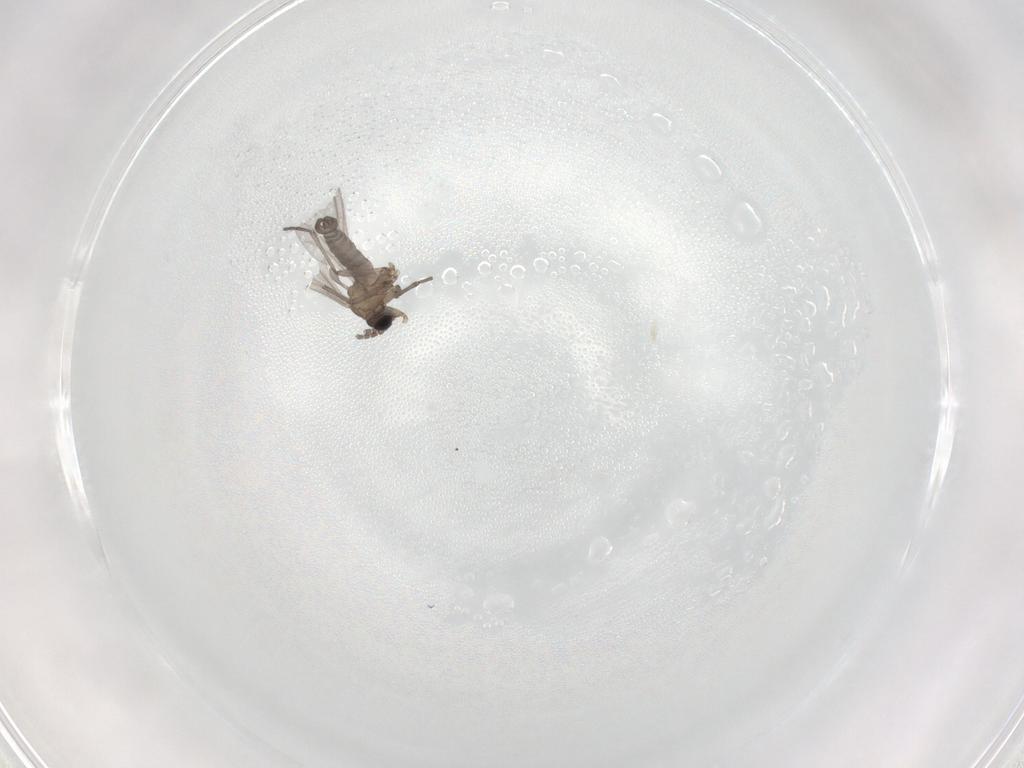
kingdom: Animalia
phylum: Arthropoda
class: Insecta
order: Diptera
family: Sciaridae
